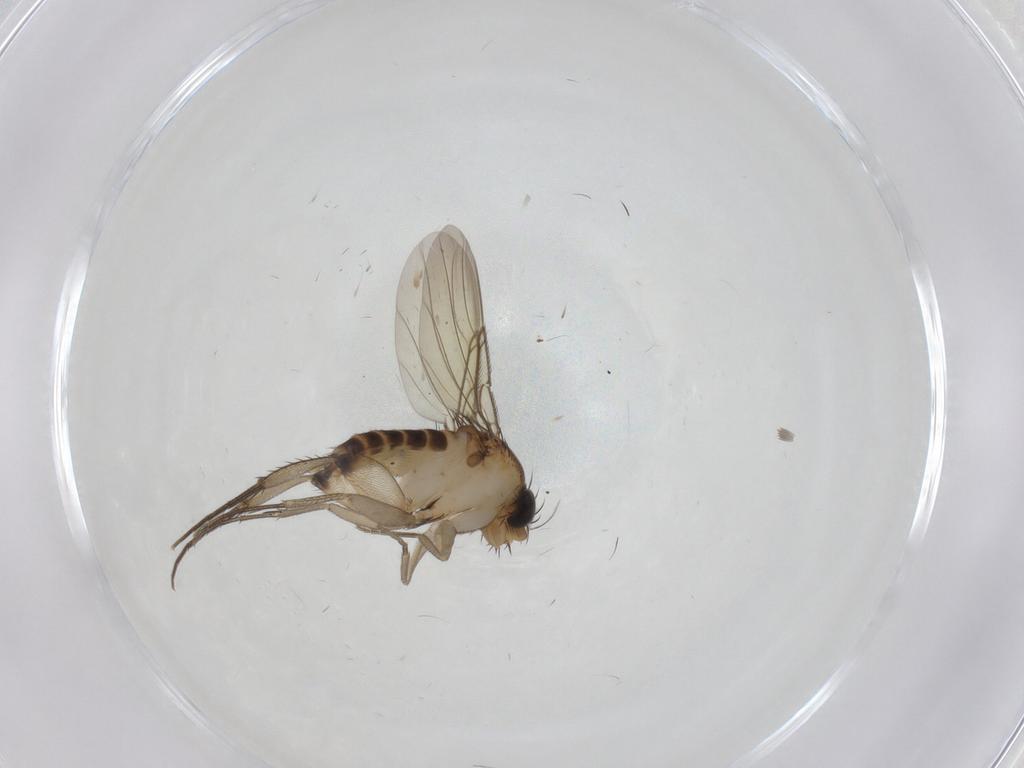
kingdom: Animalia
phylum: Arthropoda
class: Insecta
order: Diptera
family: Phoridae
